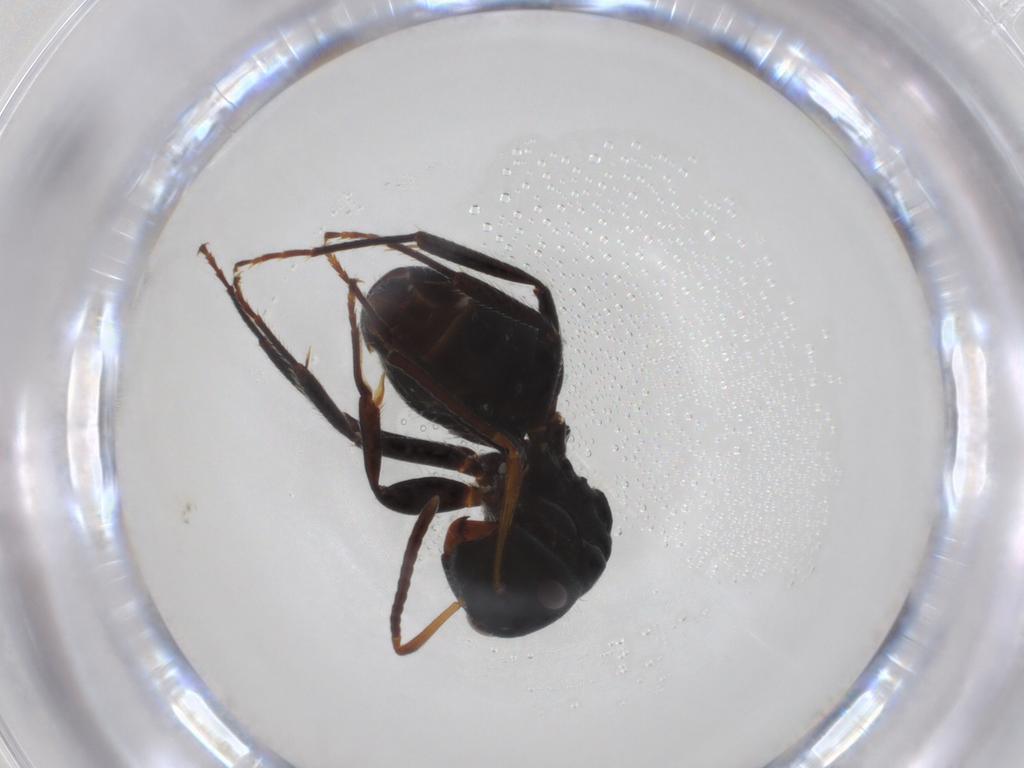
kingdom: Animalia
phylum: Arthropoda
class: Insecta
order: Hymenoptera
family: Formicidae
